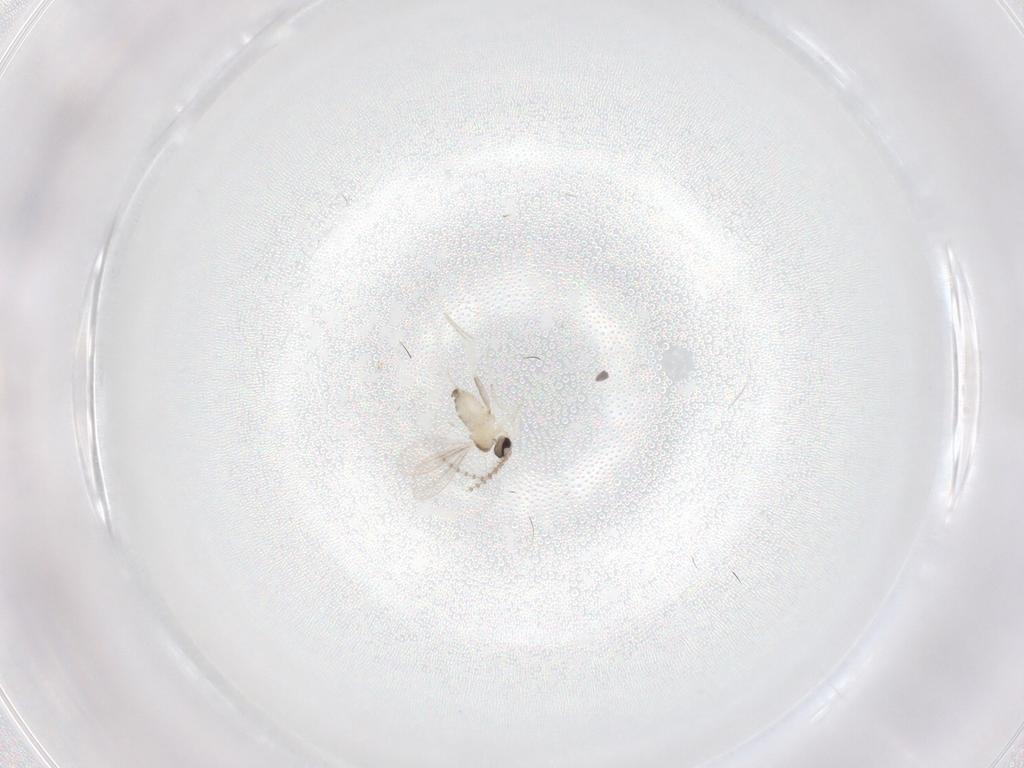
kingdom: Animalia
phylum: Arthropoda
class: Insecta
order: Diptera
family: Cecidomyiidae
